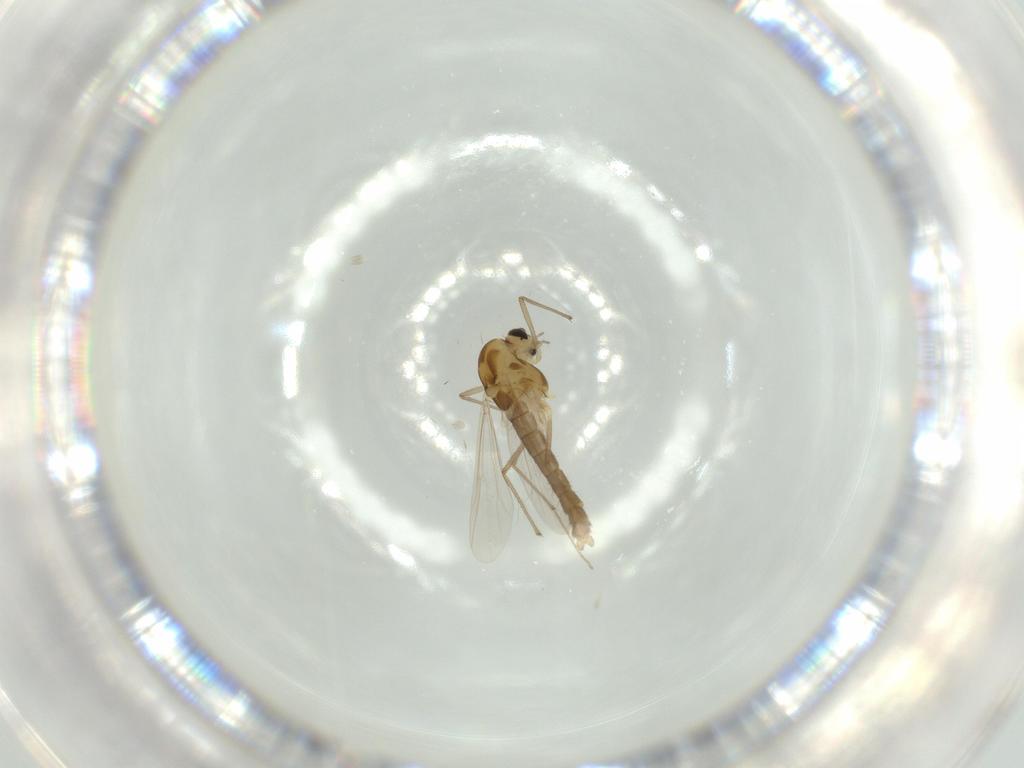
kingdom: Animalia
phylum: Arthropoda
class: Insecta
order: Diptera
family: Chironomidae
